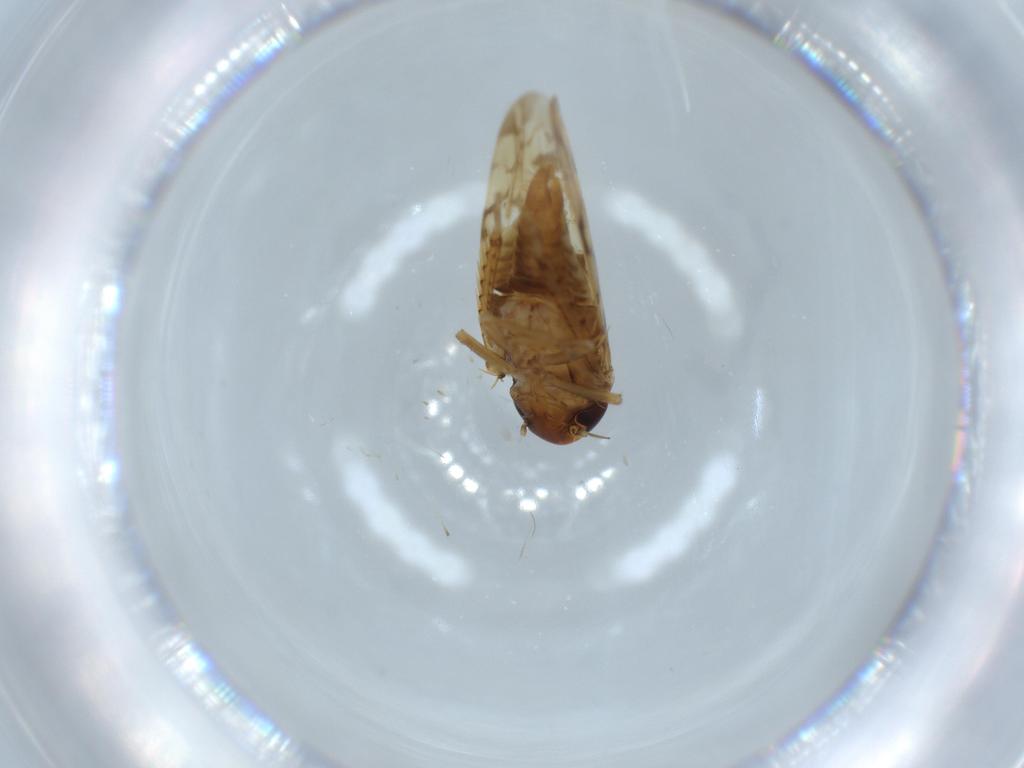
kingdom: Animalia
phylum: Arthropoda
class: Insecta
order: Hemiptera
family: Cicadellidae
